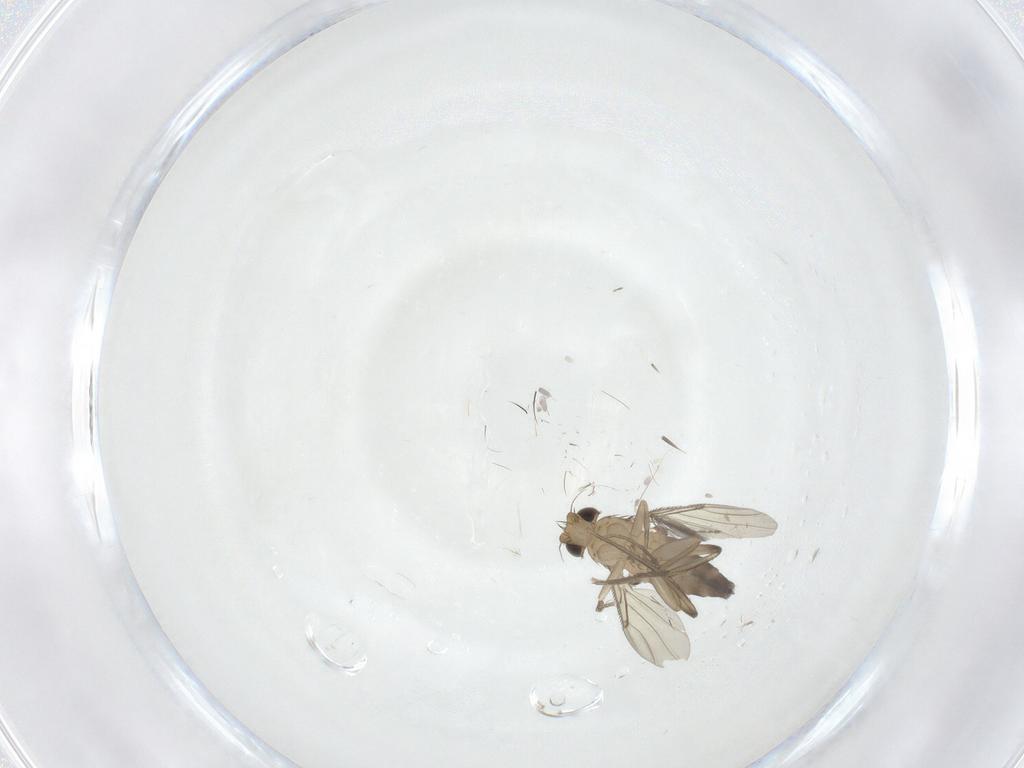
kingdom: Animalia
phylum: Arthropoda
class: Insecta
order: Diptera
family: Phoridae
